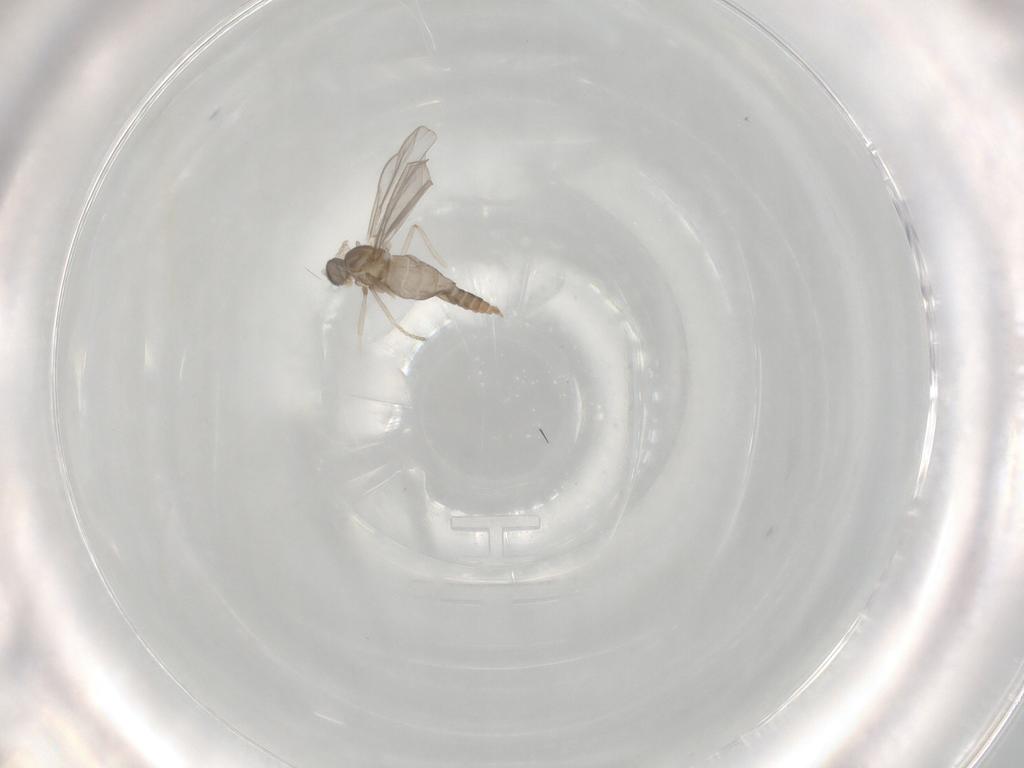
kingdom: Animalia
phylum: Arthropoda
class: Insecta
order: Diptera
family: Cecidomyiidae
